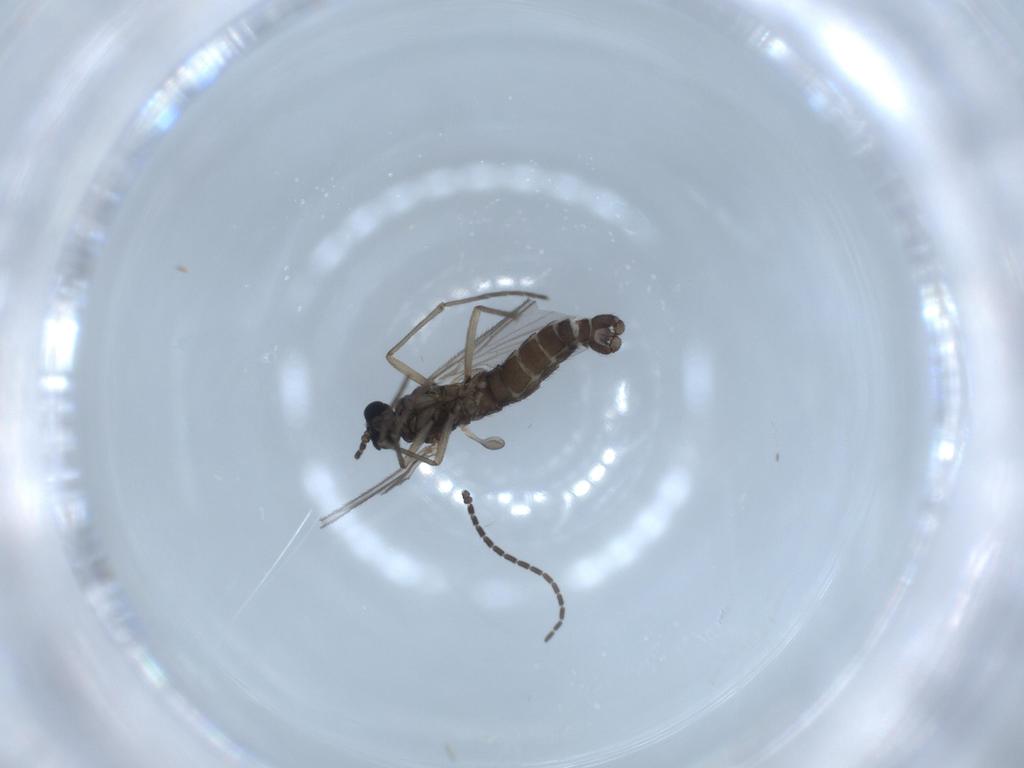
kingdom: Animalia
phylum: Arthropoda
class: Insecta
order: Diptera
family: Sciaridae
